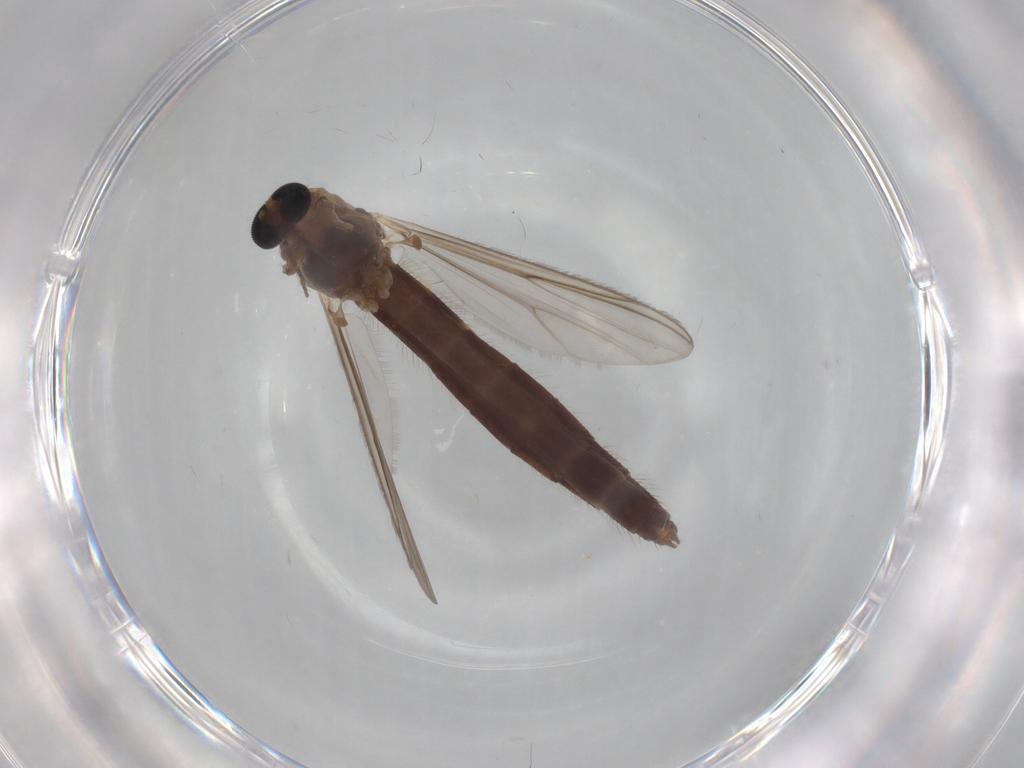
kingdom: Animalia
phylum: Arthropoda
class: Insecta
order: Diptera
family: Chironomidae
